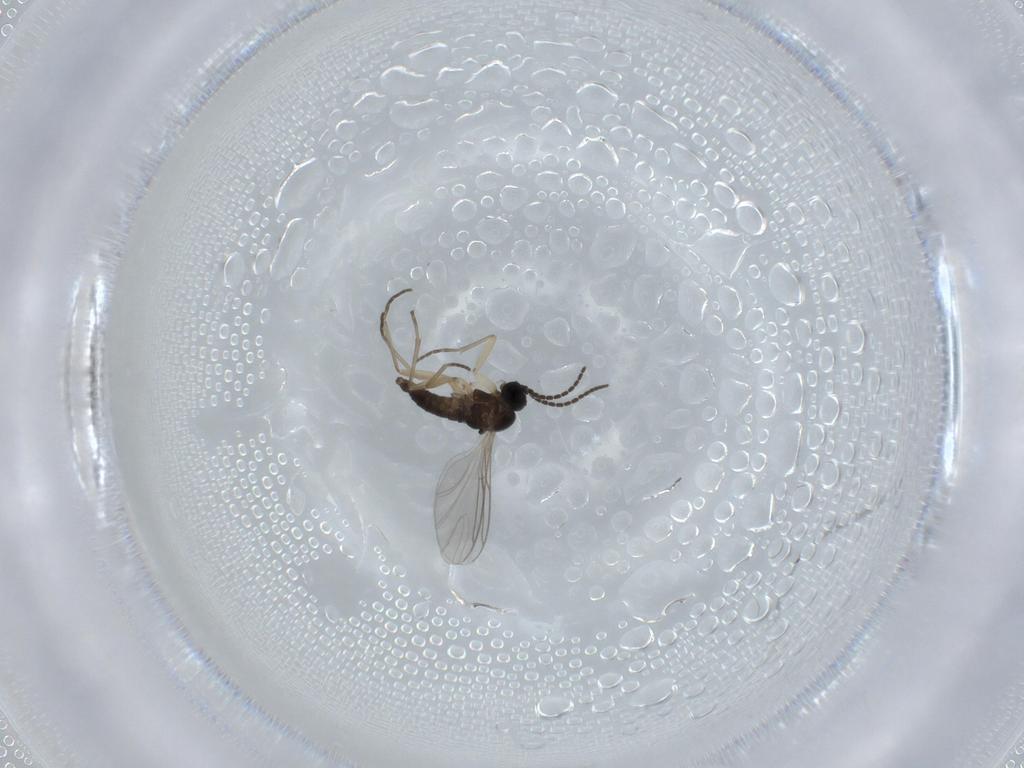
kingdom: Animalia
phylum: Arthropoda
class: Insecta
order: Diptera
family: Sciaridae
